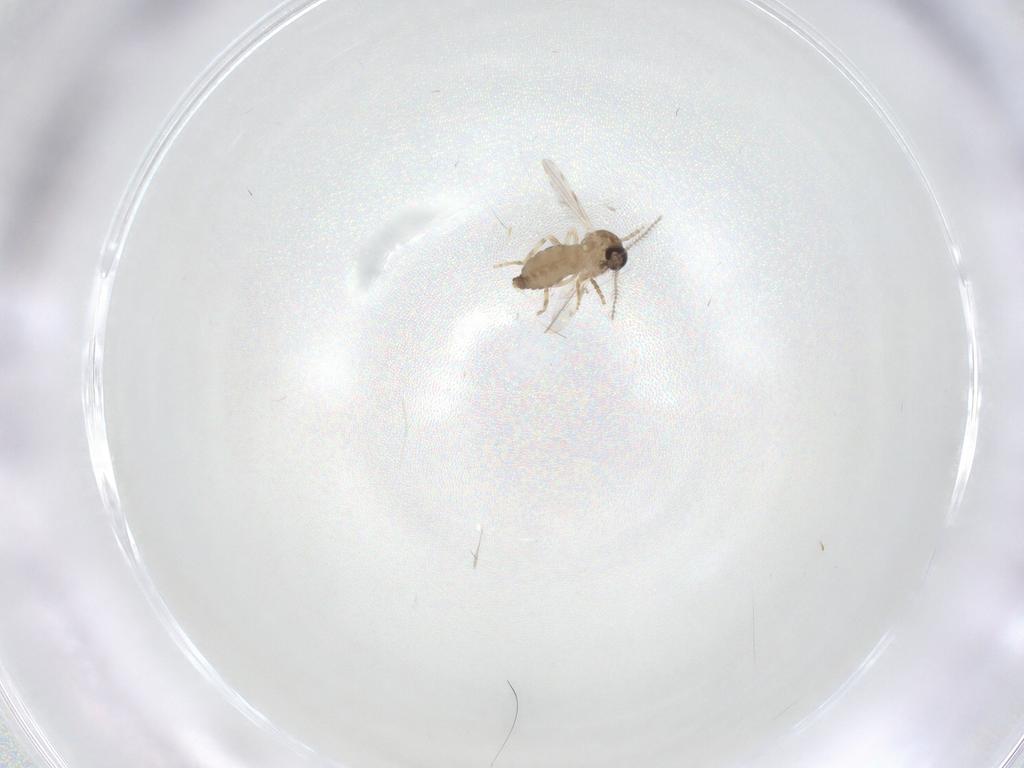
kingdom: Animalia
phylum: Arthropoda
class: Insecta
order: Diptera
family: Ceratopogonidae
